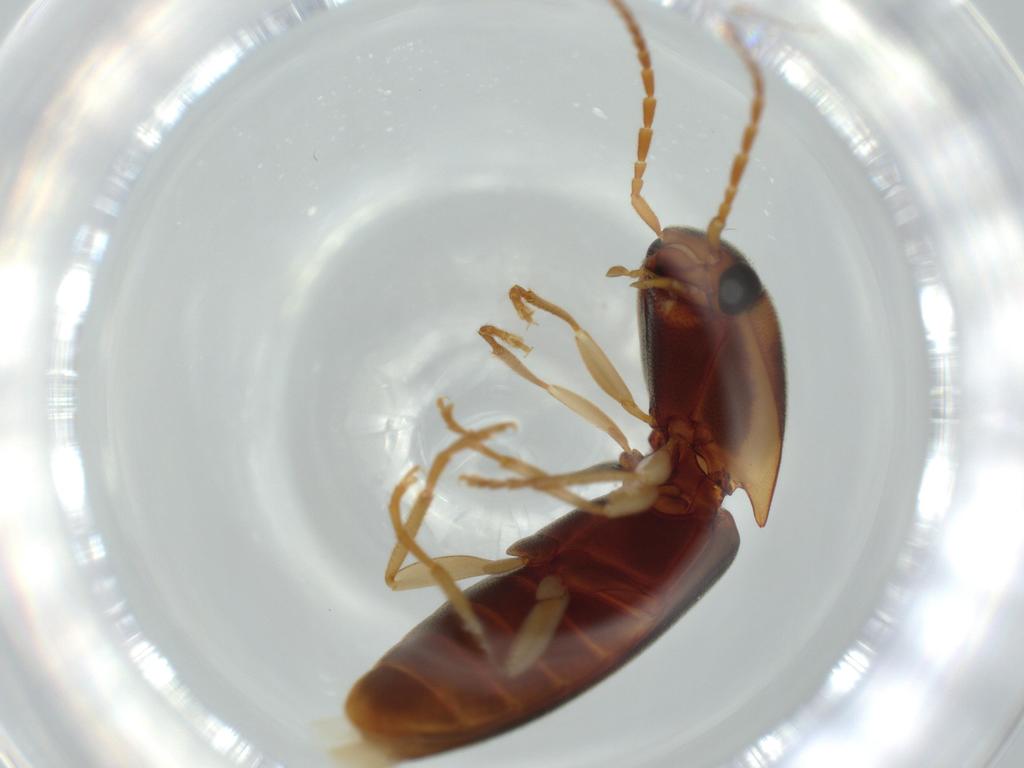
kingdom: Animalia
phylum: Arthropoda
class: Insecta
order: Coleoptera
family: Elateridae
